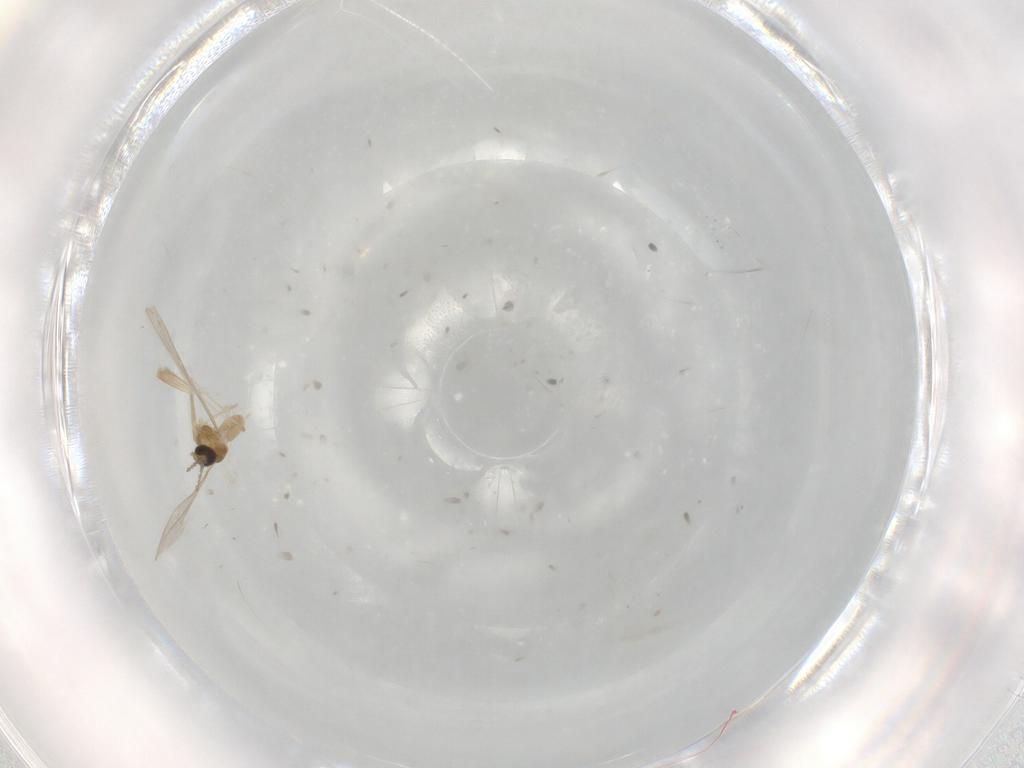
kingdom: Animalia
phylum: Arthropoda
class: Insecta
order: Diptera
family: Cecidomyiidae
